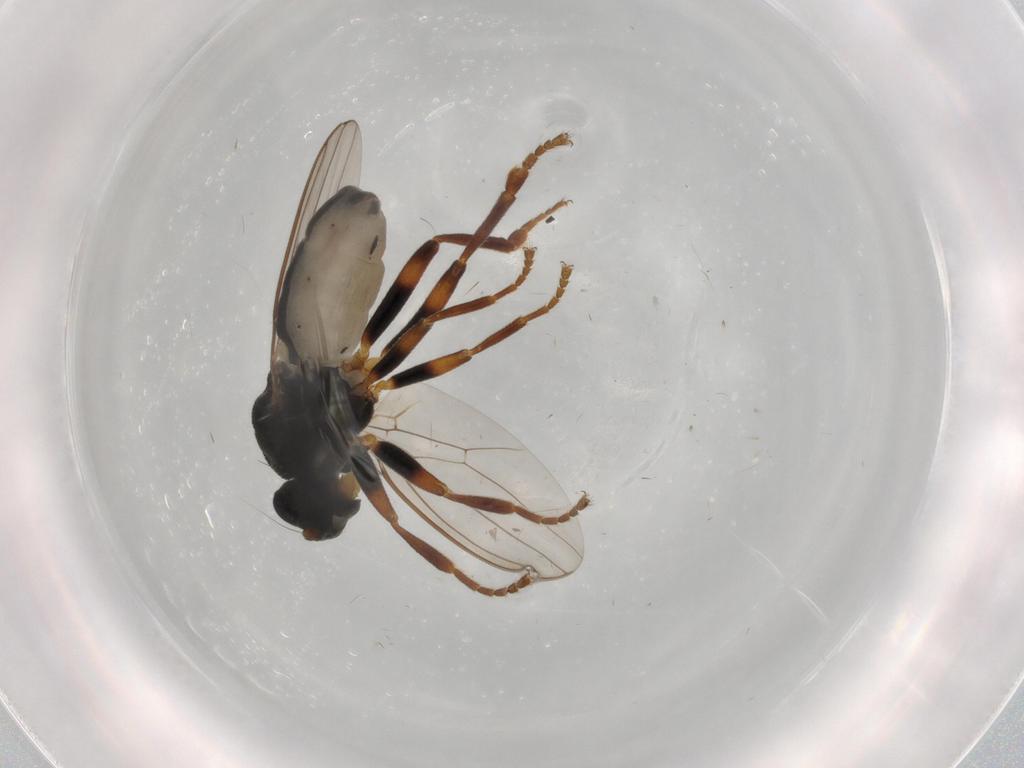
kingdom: Animalia
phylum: Arthropoda
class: Insecta
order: Diptera
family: Sphaeroceridae
